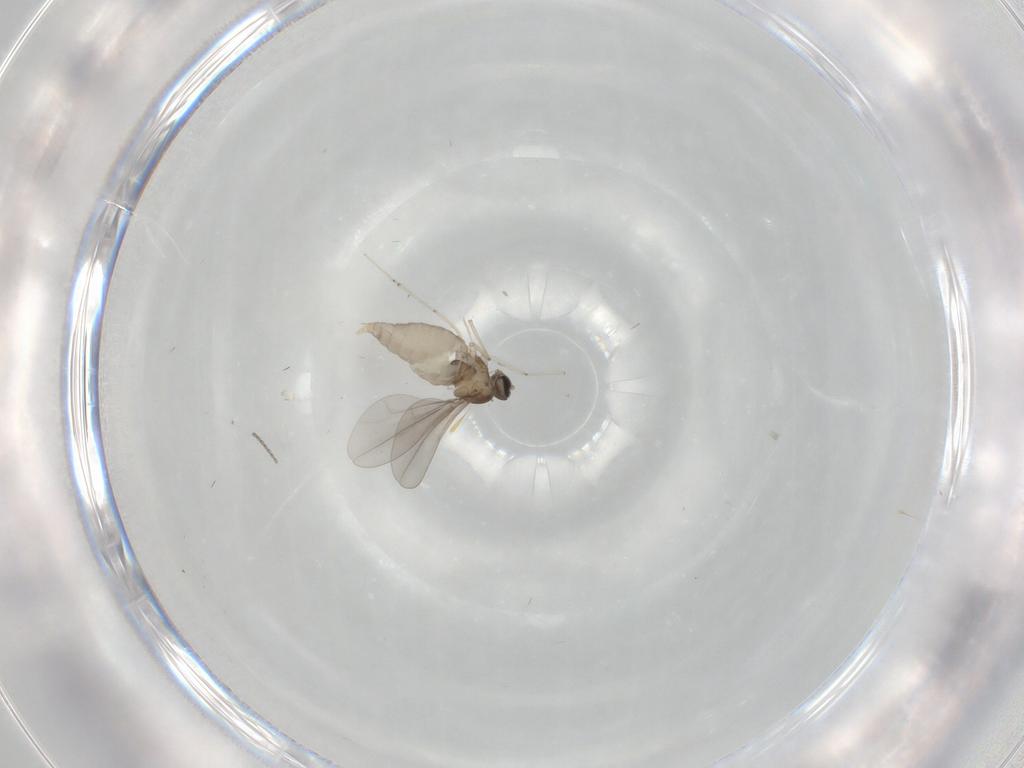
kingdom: Animalia
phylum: Arthropoda
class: Insecta
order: Diptera
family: Cecidomyiidae
